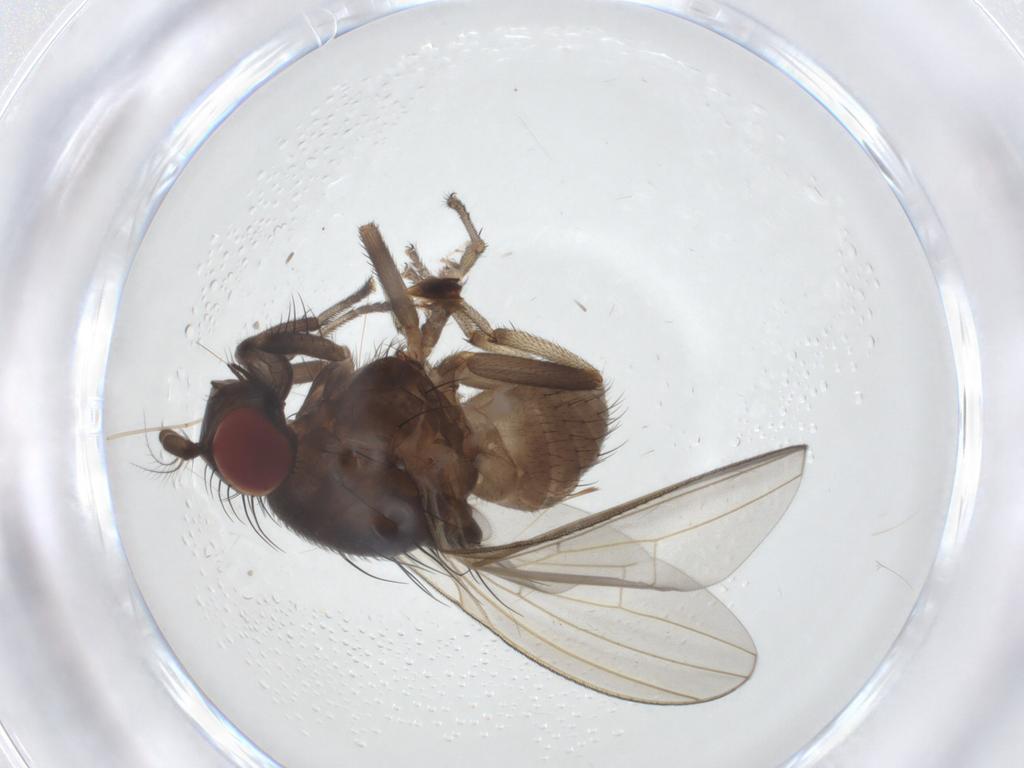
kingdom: Animalia
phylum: Arthropoda
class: Insecta
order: Diptera
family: Lauxaniidae
